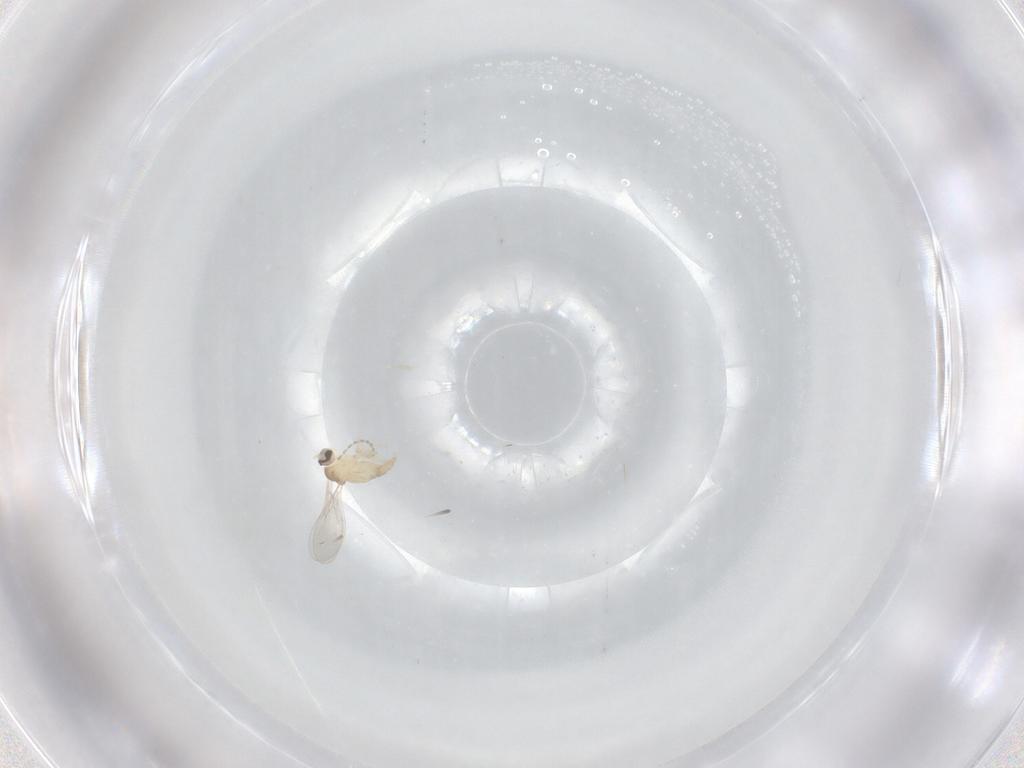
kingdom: Animalia
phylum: Arthropoda
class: Insecta
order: Diptera
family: Cecidomyiidae
